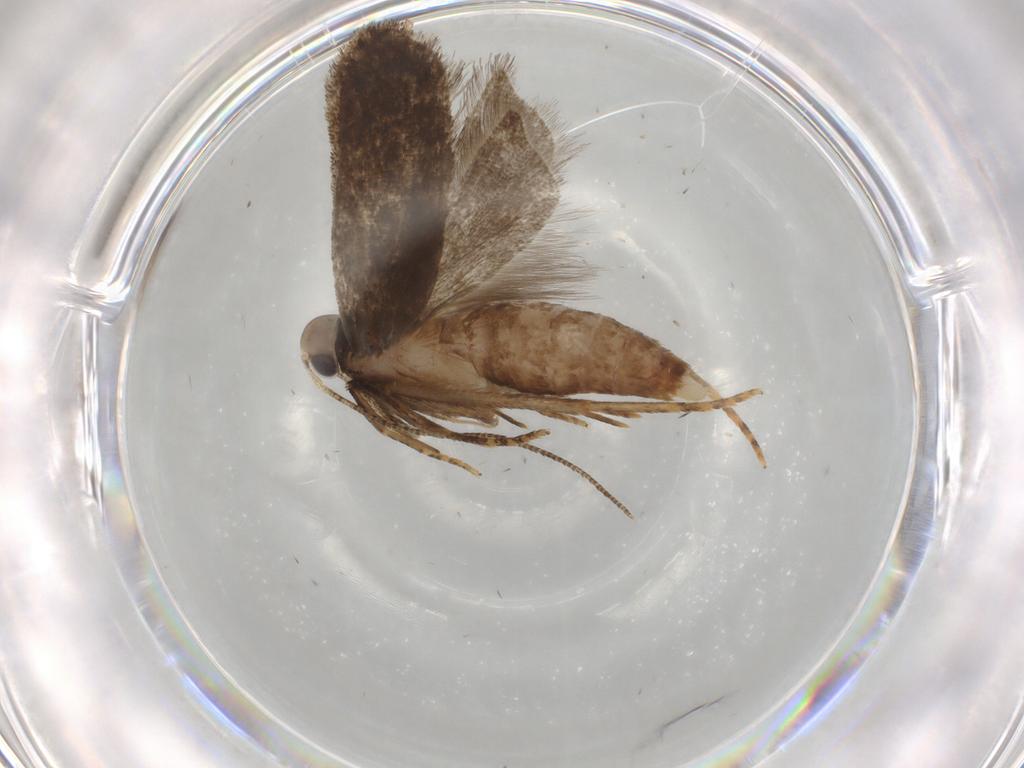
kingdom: Animalia
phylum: Arthropoda
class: Insecta
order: Lepidoptera
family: Gelechiidae
